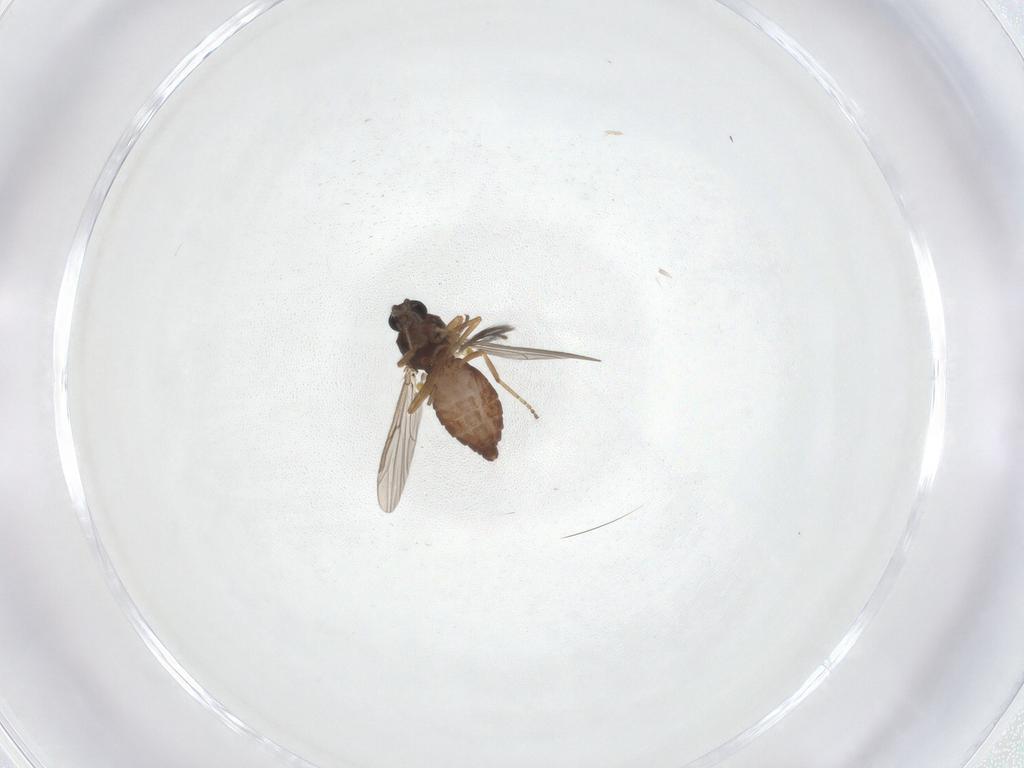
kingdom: Animalia
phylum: Arthropoda
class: Insecta
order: Diptera
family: Ceratopogonidae
